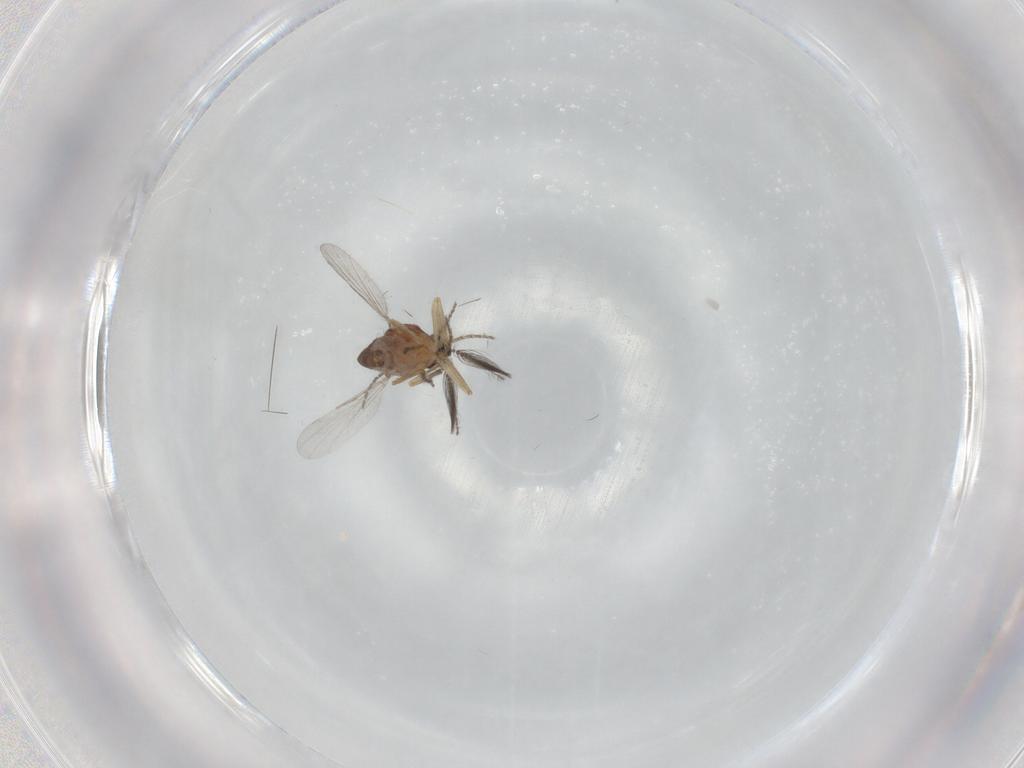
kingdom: Animalia
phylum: Arthropoda
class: Insecta
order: Diptera
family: Ceratopogonidae
